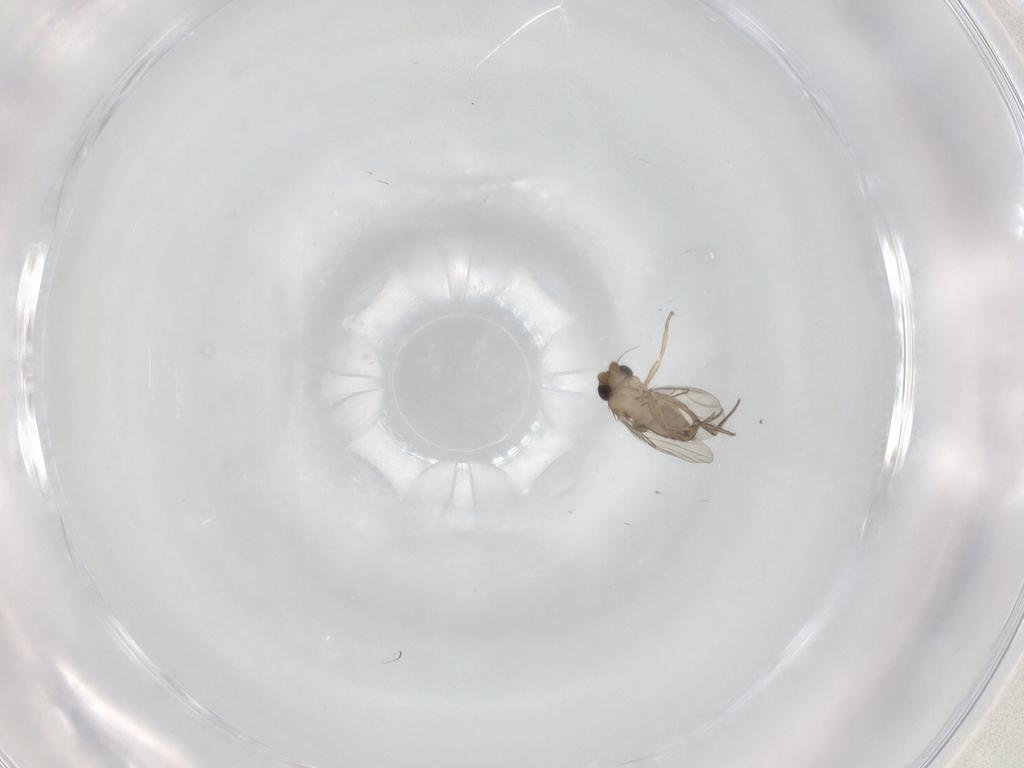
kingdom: Animalia
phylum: Arthropoda
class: Insecta
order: Diptera
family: Phoridae
